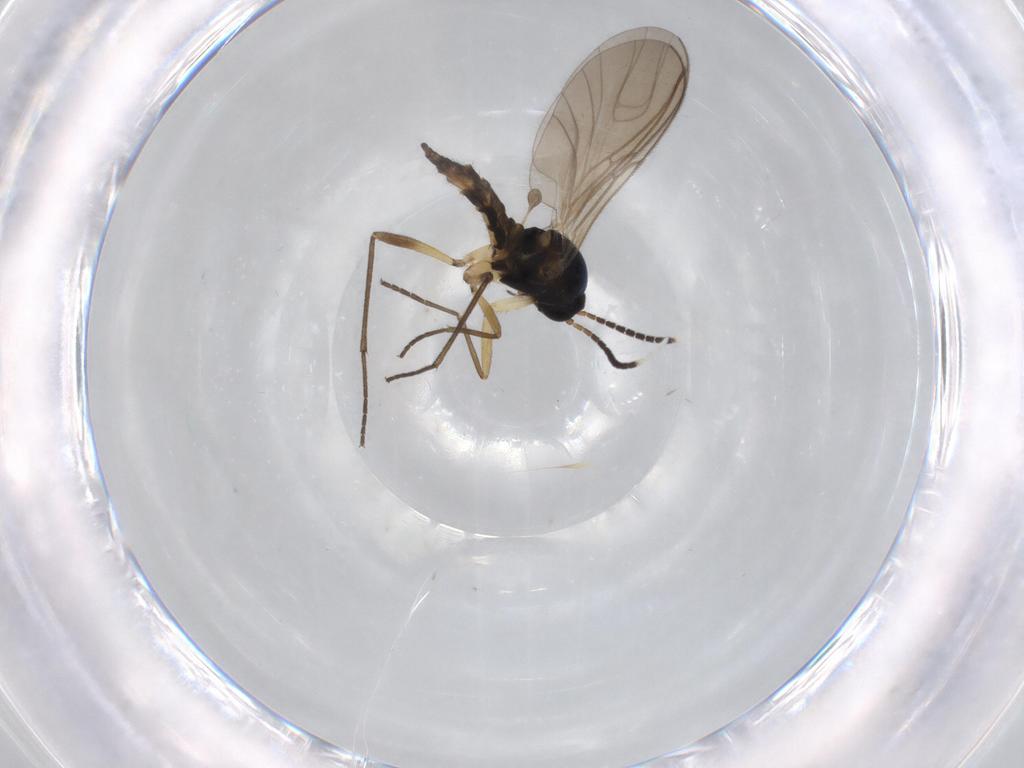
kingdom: Animalia
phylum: Arthropoda
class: Insecta
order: Diptera
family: Sciaridae
